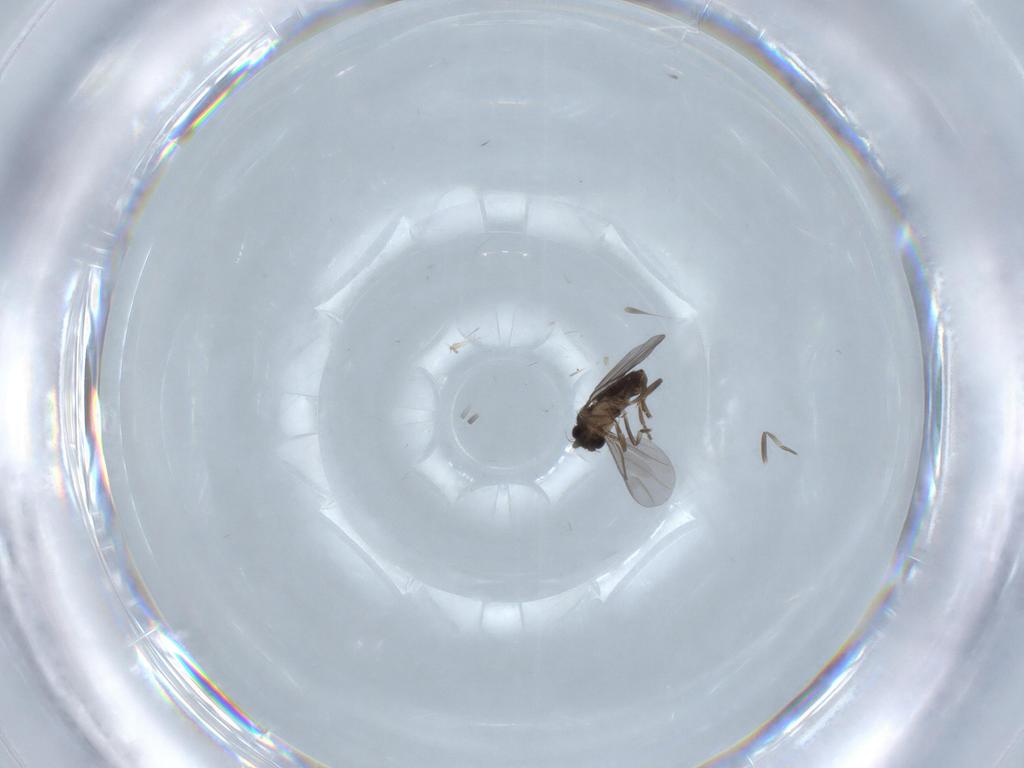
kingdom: Animalia
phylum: Arthropoda
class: Insecta
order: Diptera
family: Anthomyiidae
